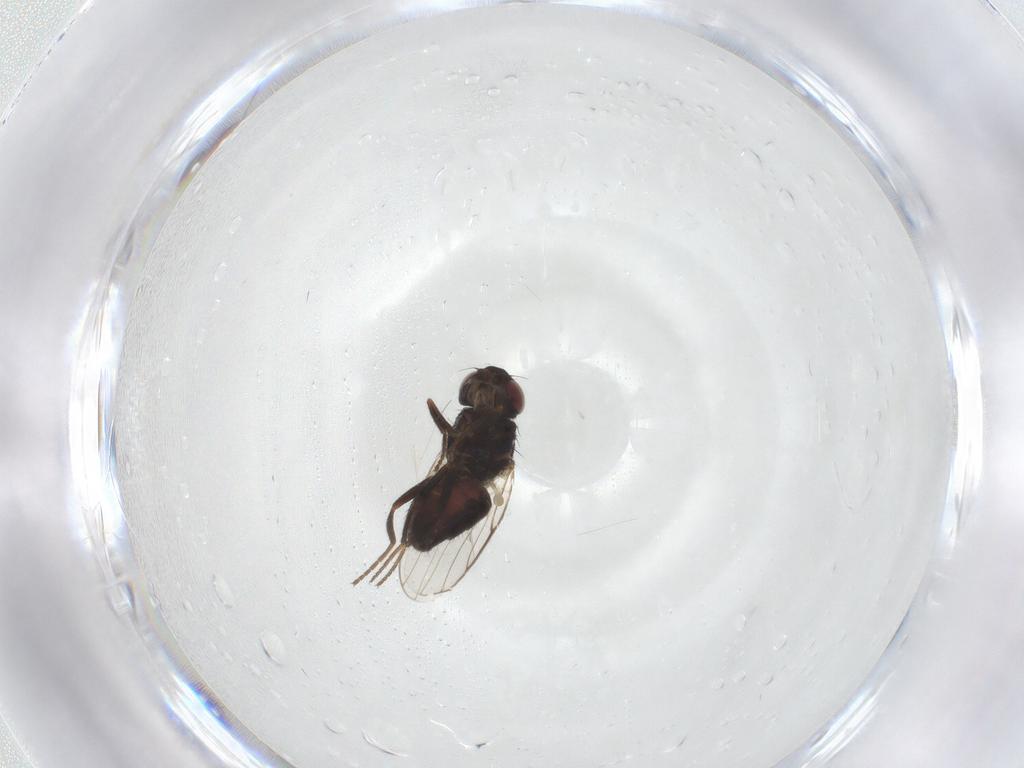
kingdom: Animalia
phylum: Arthropoda
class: Insecta
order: Diptera
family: Chloropidae
